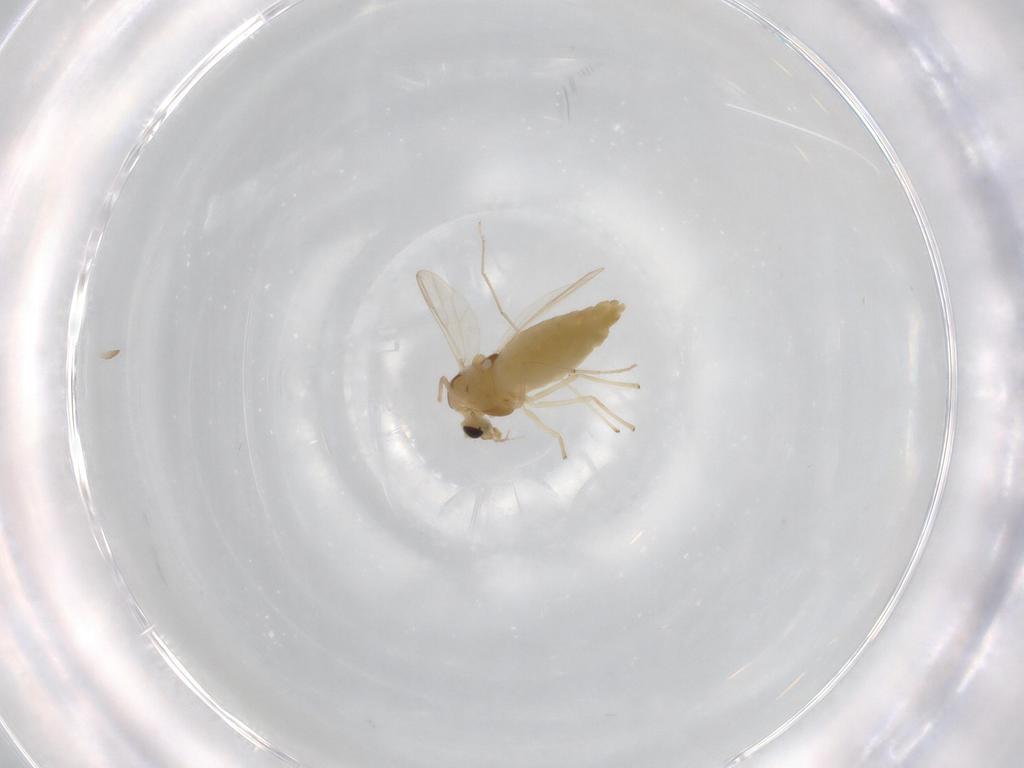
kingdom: Animalia
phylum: Arthropoda
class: Insecta
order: Diptera
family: Chironomidae
